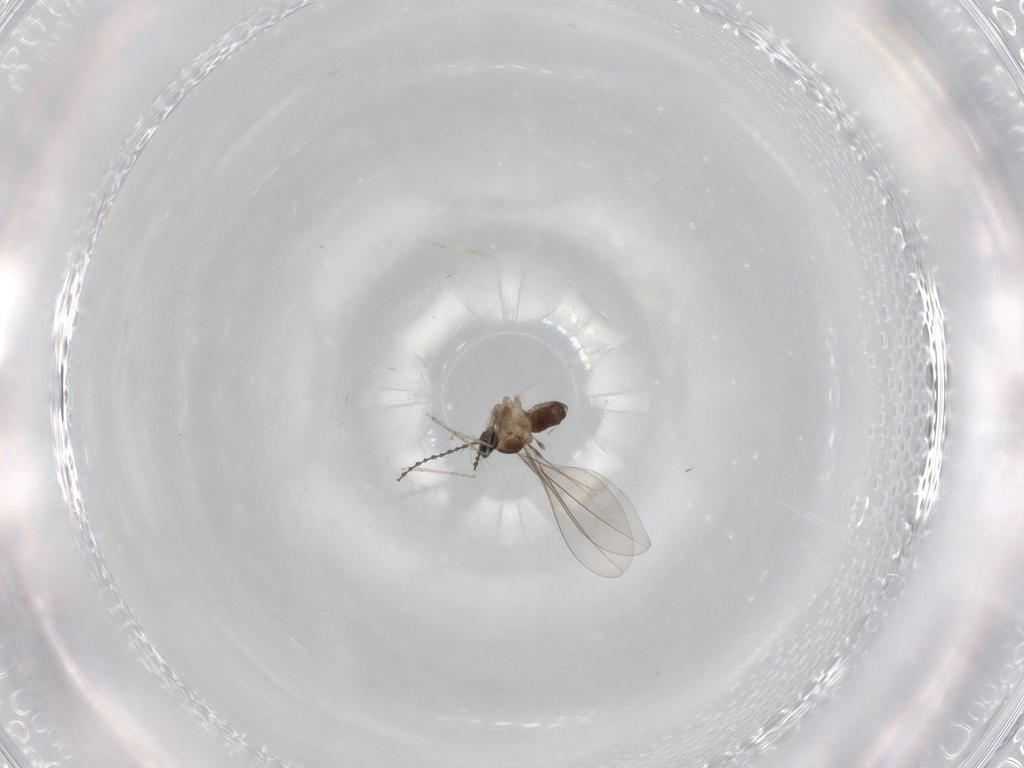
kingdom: Animalia
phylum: Arthropoda
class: Insecta
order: Diptera
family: Cecidomyiidae
